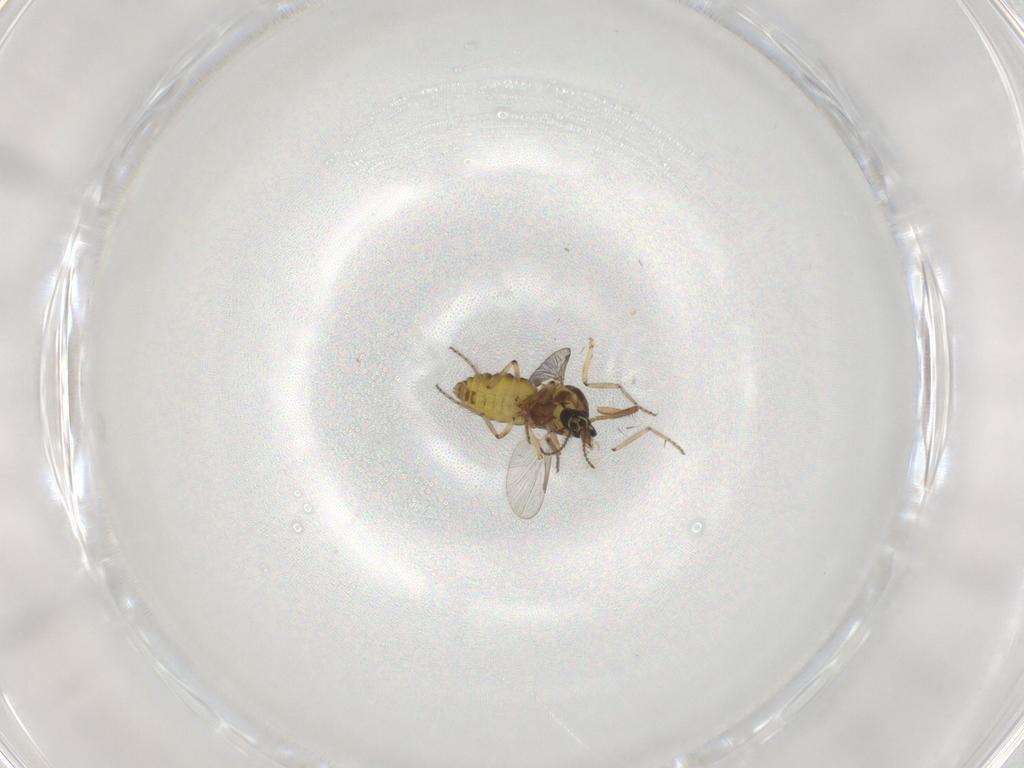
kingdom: Animalia
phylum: Arthropoda
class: Insecta
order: Diptera
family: Ceratopogonidae
